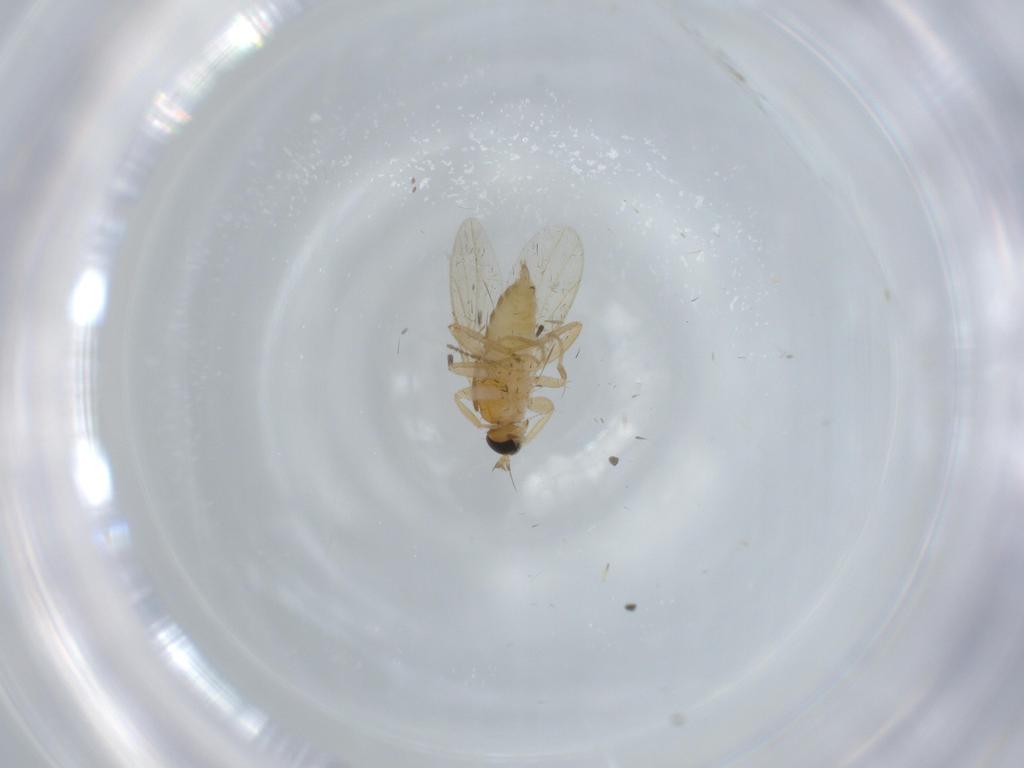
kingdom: Animalia
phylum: Arthropoda
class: Insecta
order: Diptera
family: Hybotidae
